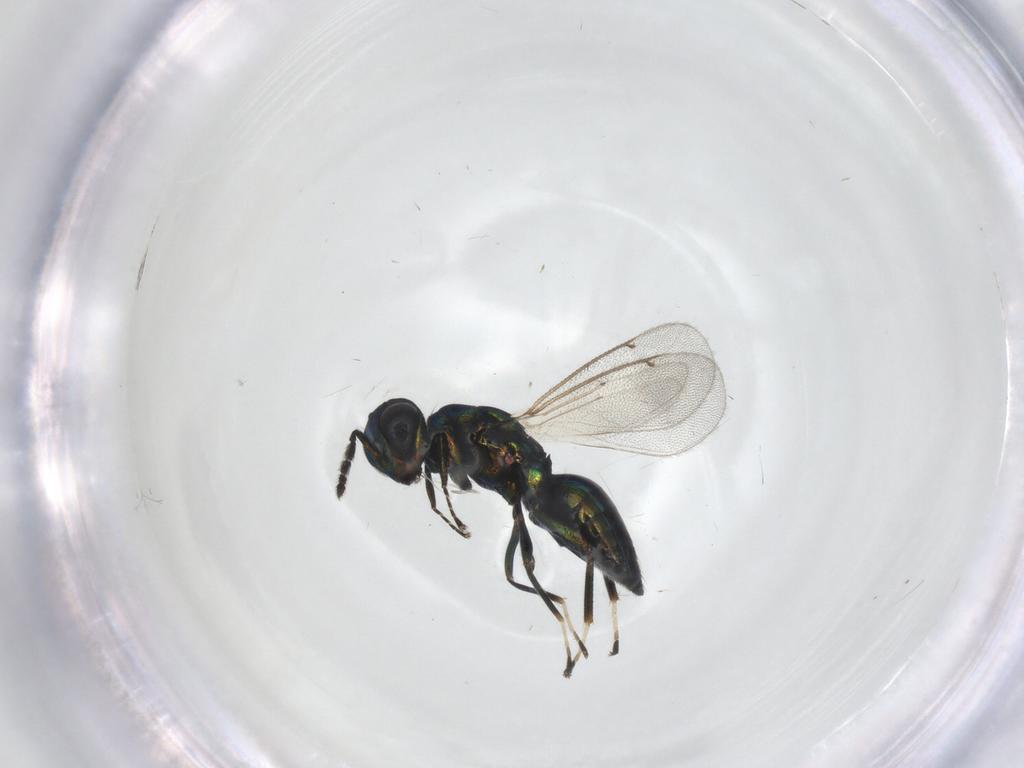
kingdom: Animalia
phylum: Arthropoda
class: Insecta
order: Hymenoptera
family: Eulophidae
